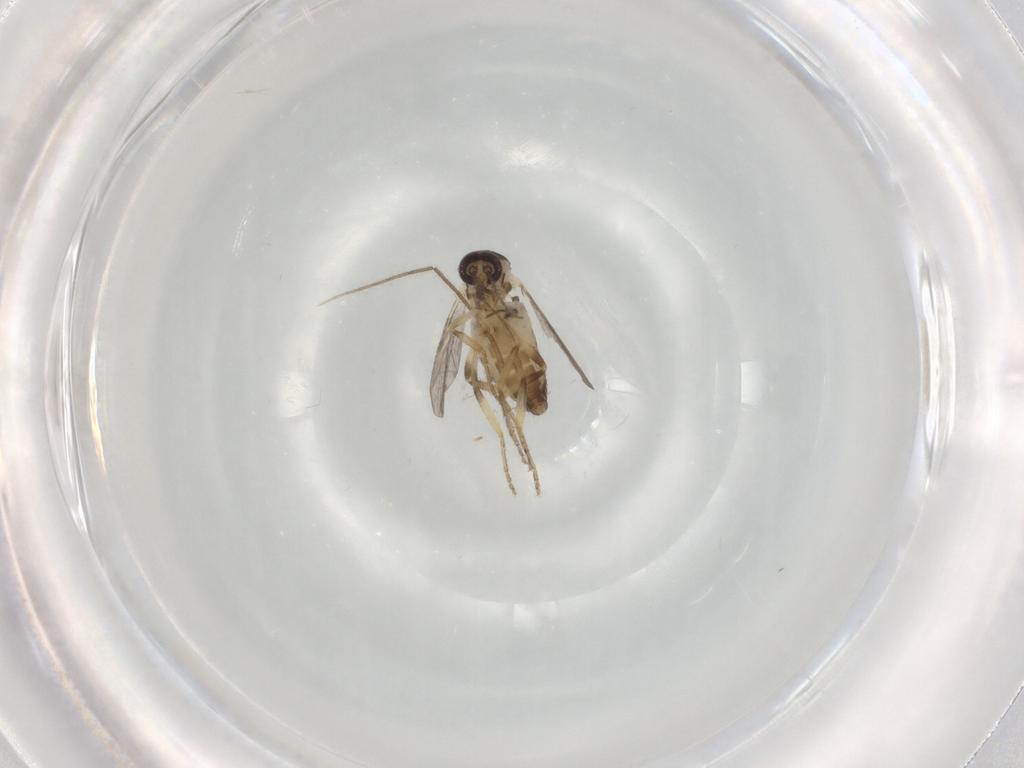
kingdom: Animalia
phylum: Arthropoda
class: Insecta
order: Diptera
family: Ceratopogonidae
